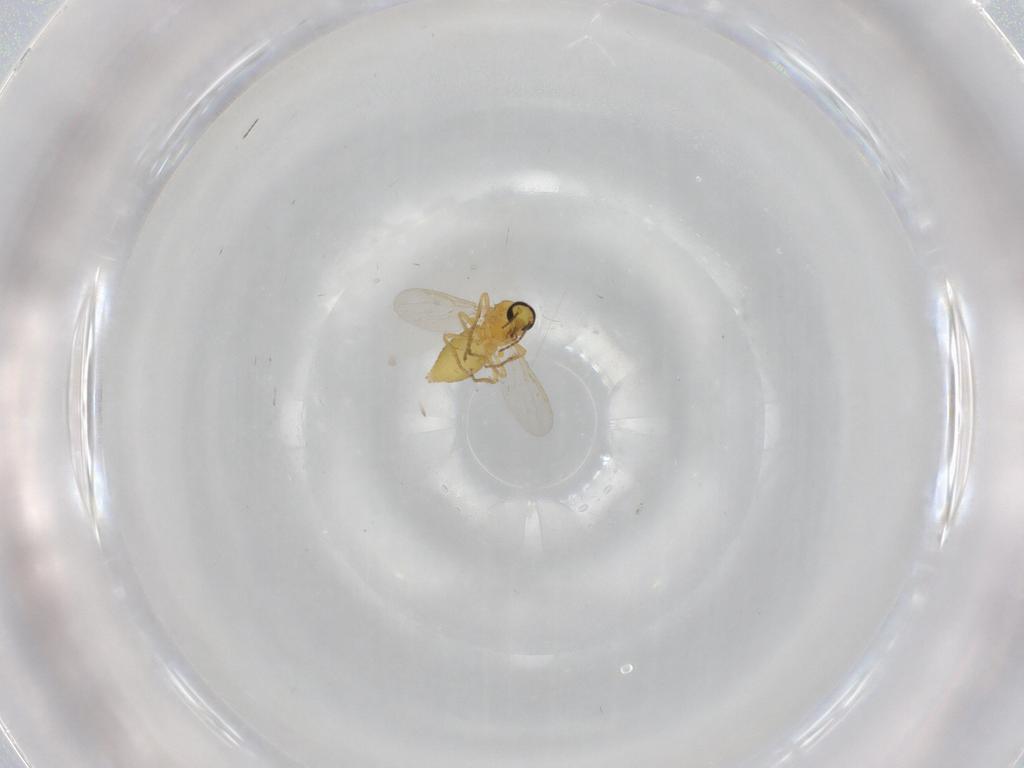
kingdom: Animalia
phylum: Arthropoda
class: Insecta
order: Diptera
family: Ceratopogonidae
